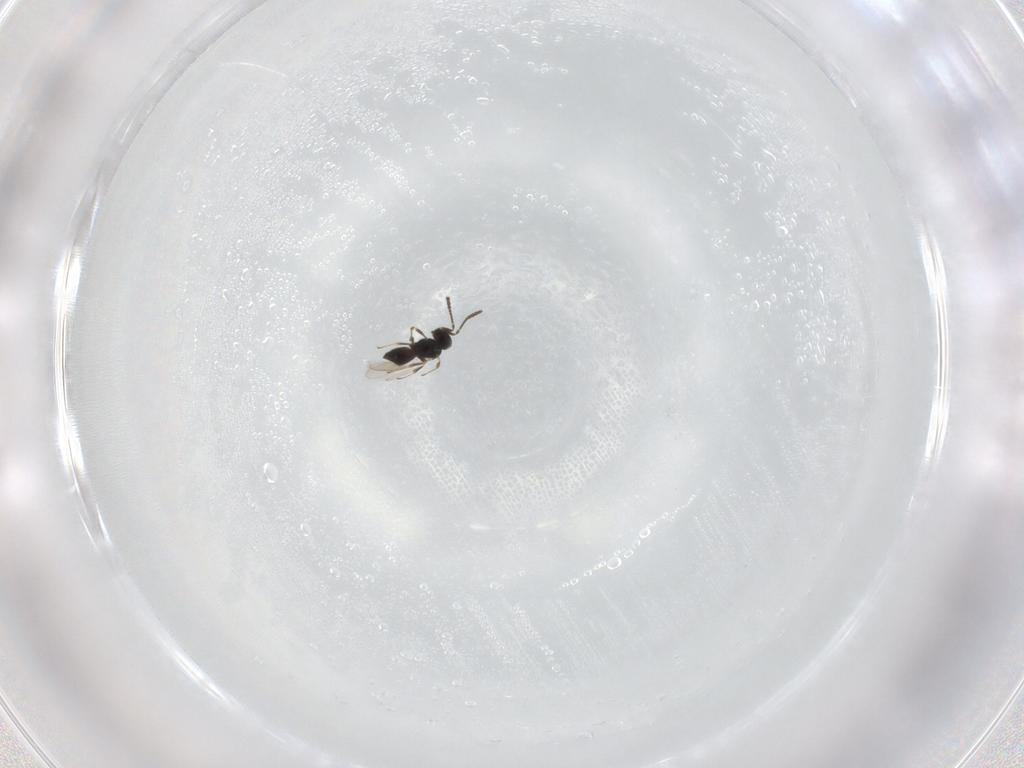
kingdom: Animalia
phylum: Arthropoda
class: Insecta
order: Hymenoptera
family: Scelionidae
